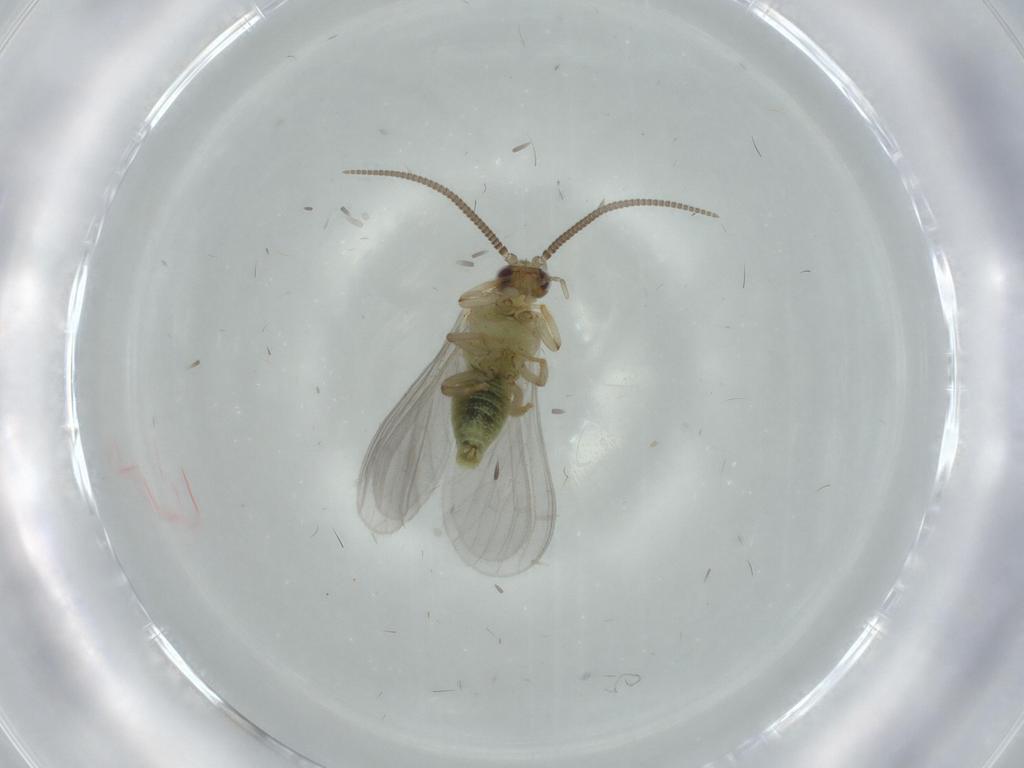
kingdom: Animalia
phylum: Arthropoda
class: Insecta
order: Neuroptera
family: Coniopterygidae
